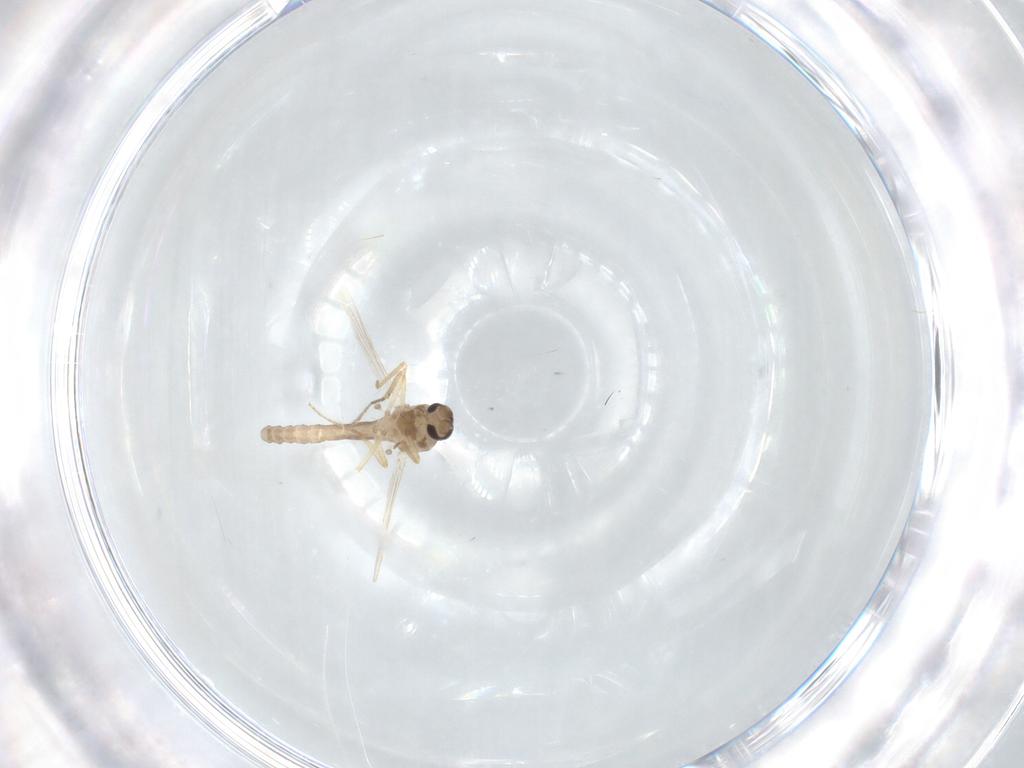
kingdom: Animalia
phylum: Arthropoda
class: Insecta
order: Diptera
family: Ceratopogonidae
